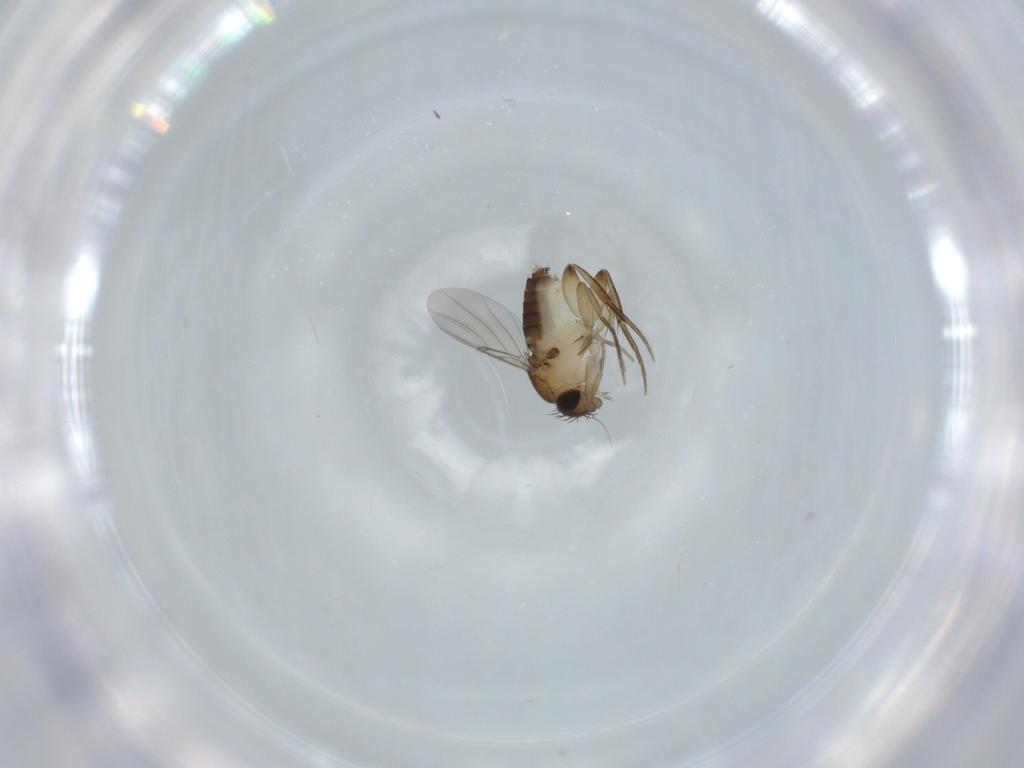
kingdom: Animalia
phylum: Arthropoda
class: Insecta
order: Diptera
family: Phoridae
